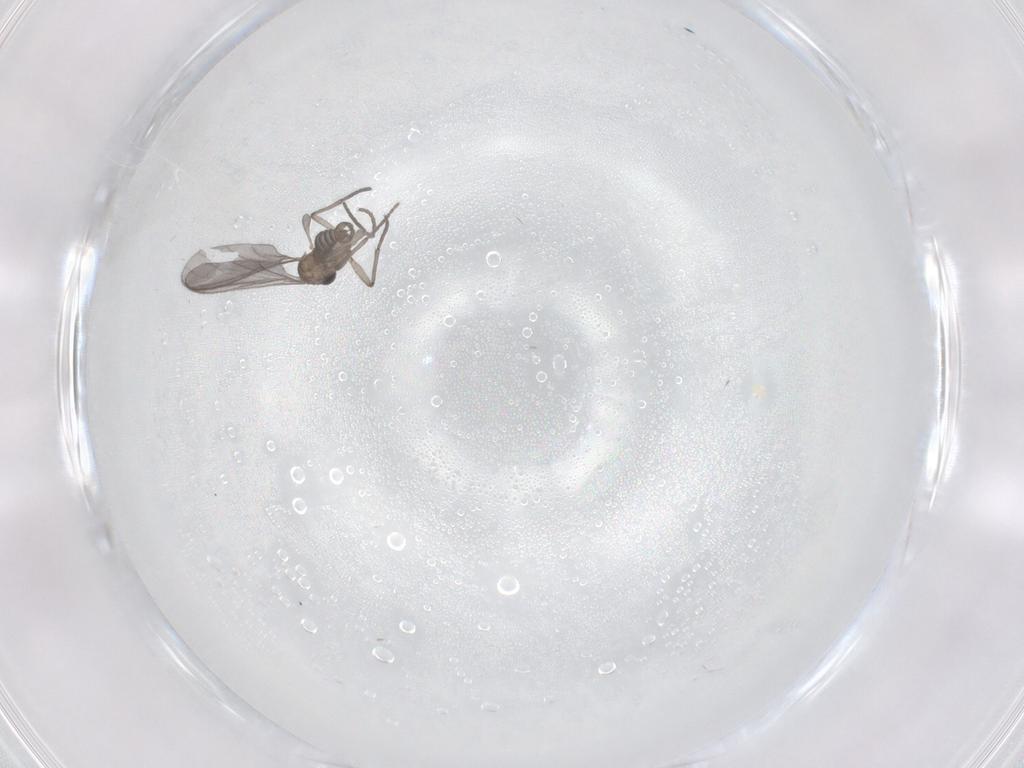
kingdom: Animalia
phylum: Arthropoda
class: Insecta
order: Diptera
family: Sciaridae
